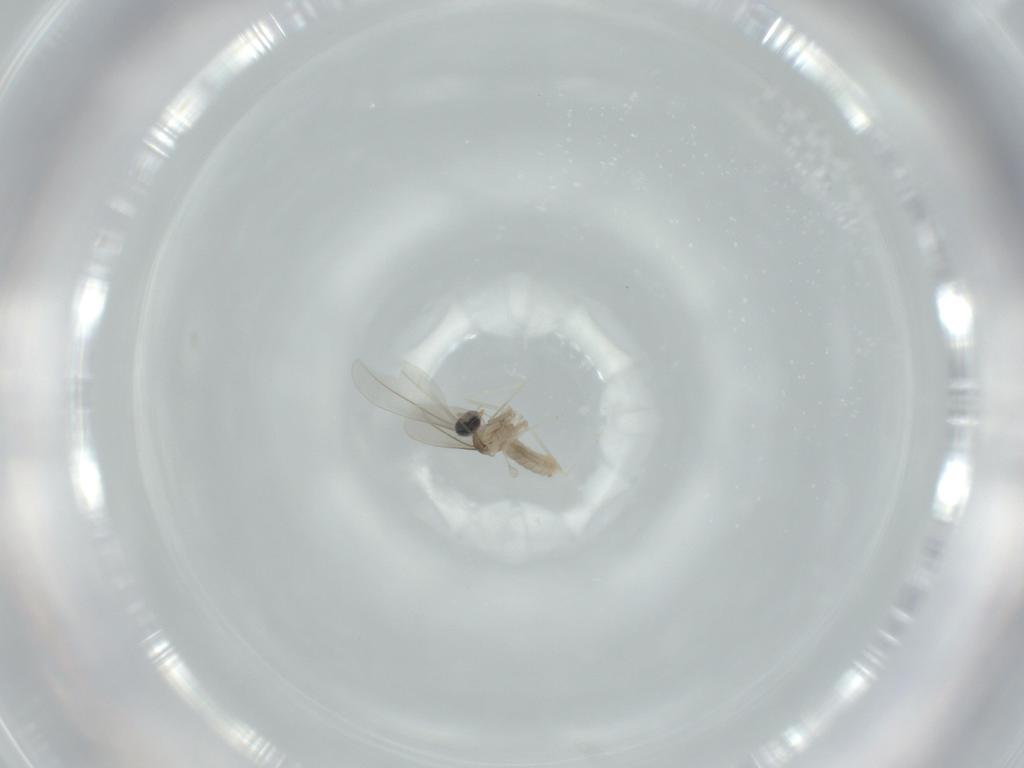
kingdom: Animalia
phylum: Arthropoda
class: Insecta
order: Diptera
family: Cecidomyiidae
